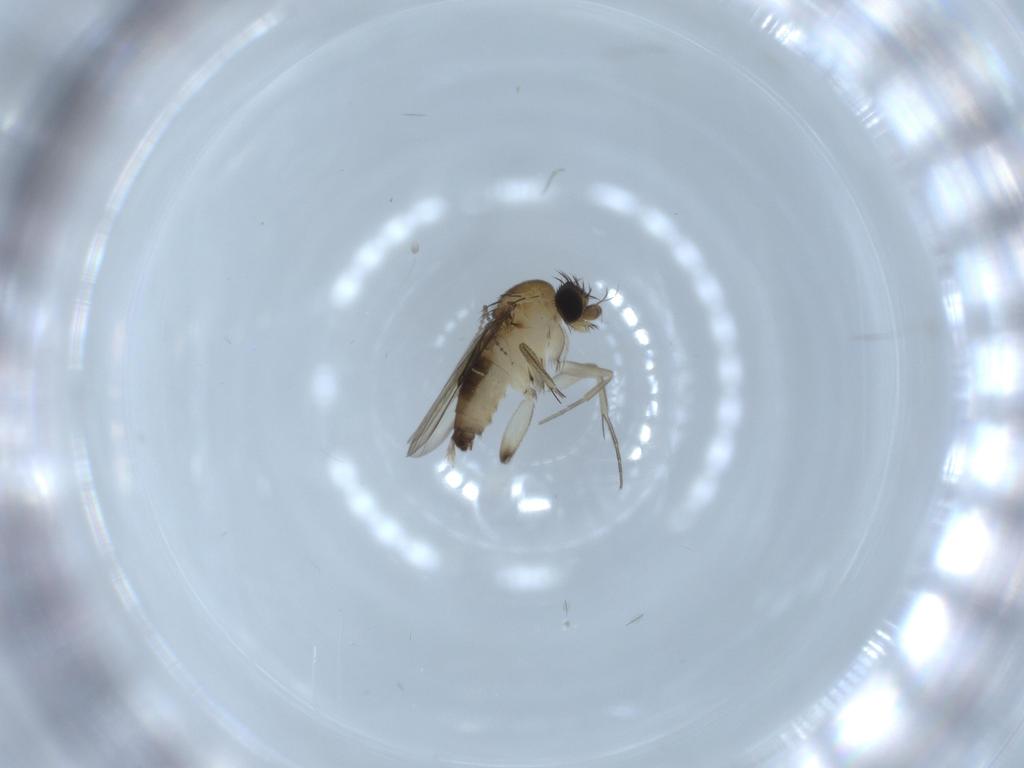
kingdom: Animalia
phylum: Arthropoda
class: Insecta
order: Diptera
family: Phoridae
